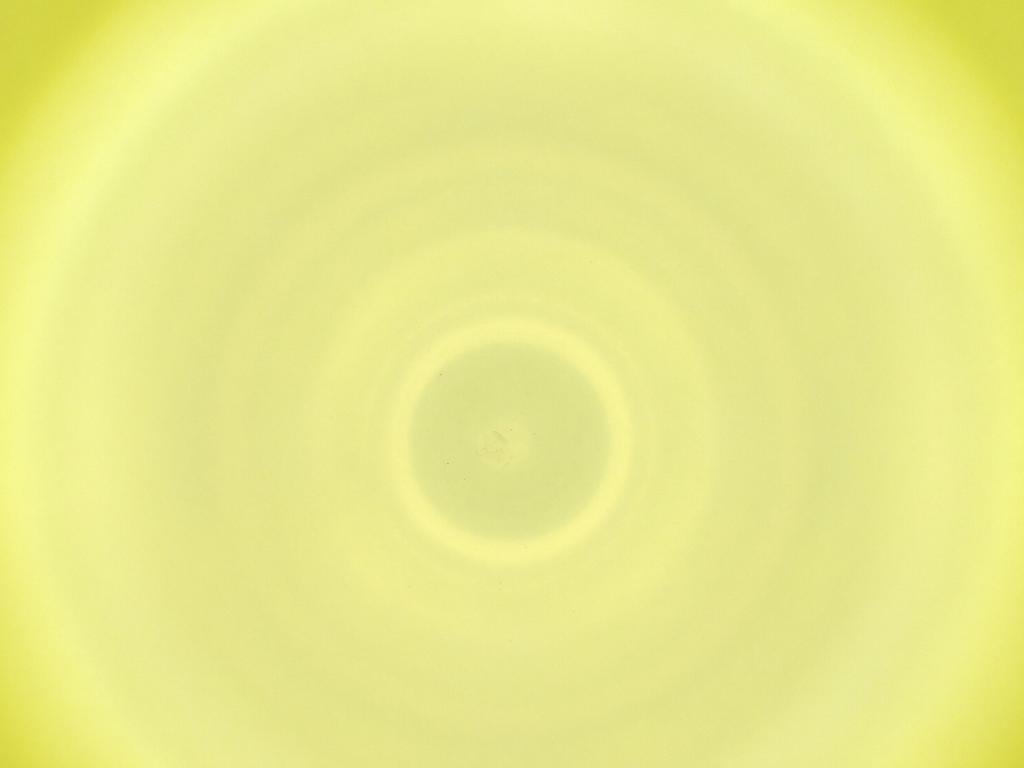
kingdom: Animalia
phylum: Arthropoda
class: Insecta
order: Diptera
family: Cecidomyiidae
